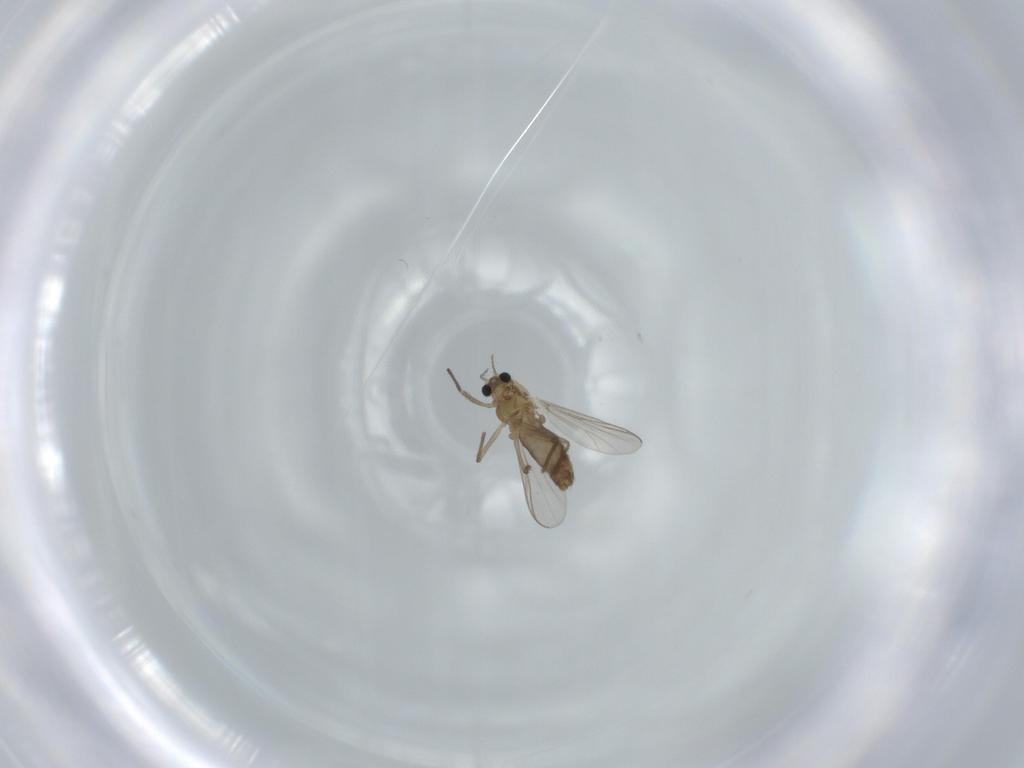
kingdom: Animalia
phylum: Arthropoda
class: Insecta
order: Diptera
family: Chironomidae
